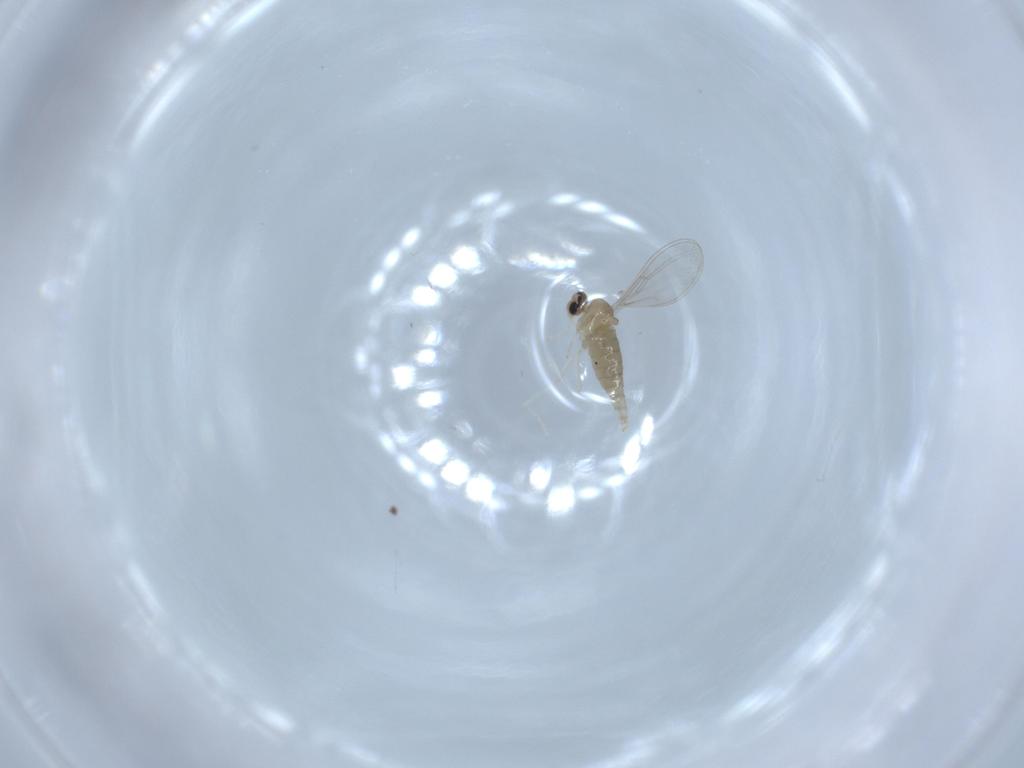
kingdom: Animalia
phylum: Arthropoda
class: Insecta
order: Diptera
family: Cecidomyiidae
